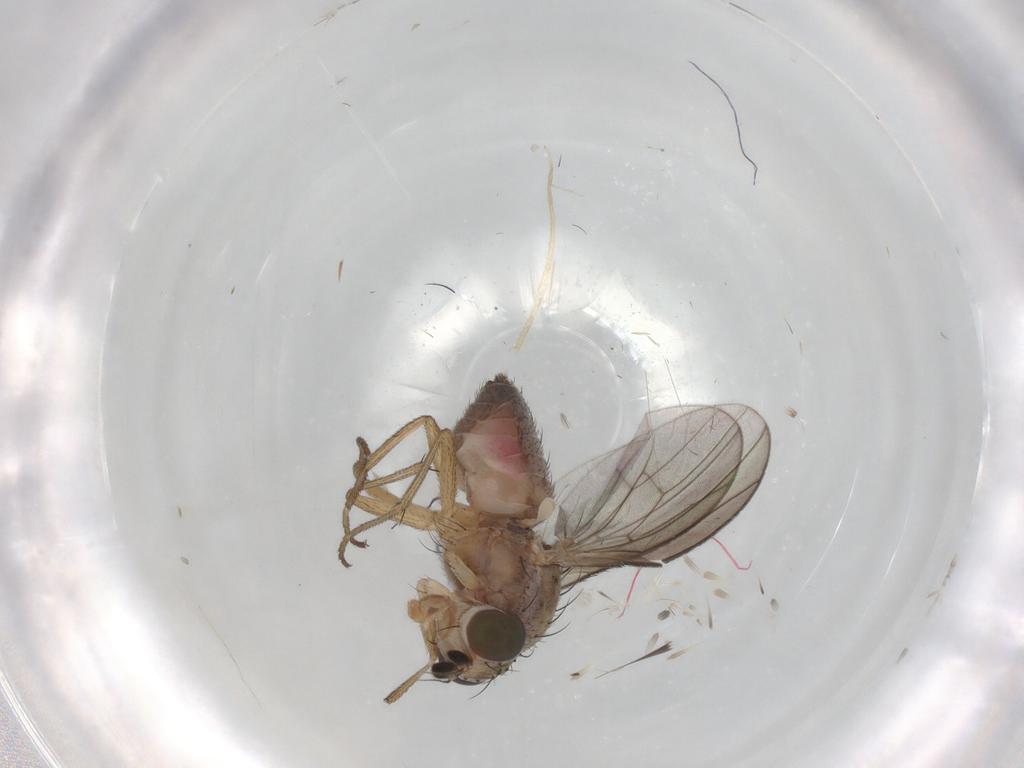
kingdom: Animalia
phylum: Arthropoda
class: Insecta
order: Diptera
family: Heleomyzidae
